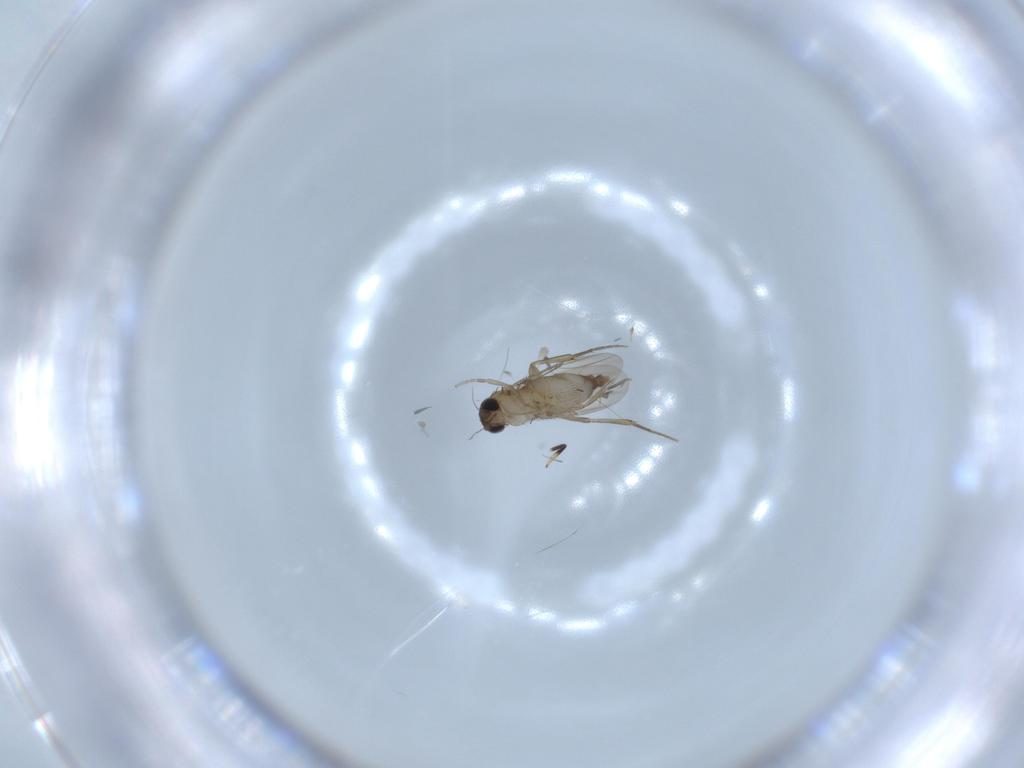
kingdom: Animalia
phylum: Arthropoda
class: Insecta
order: Diptera
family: Phoridae
